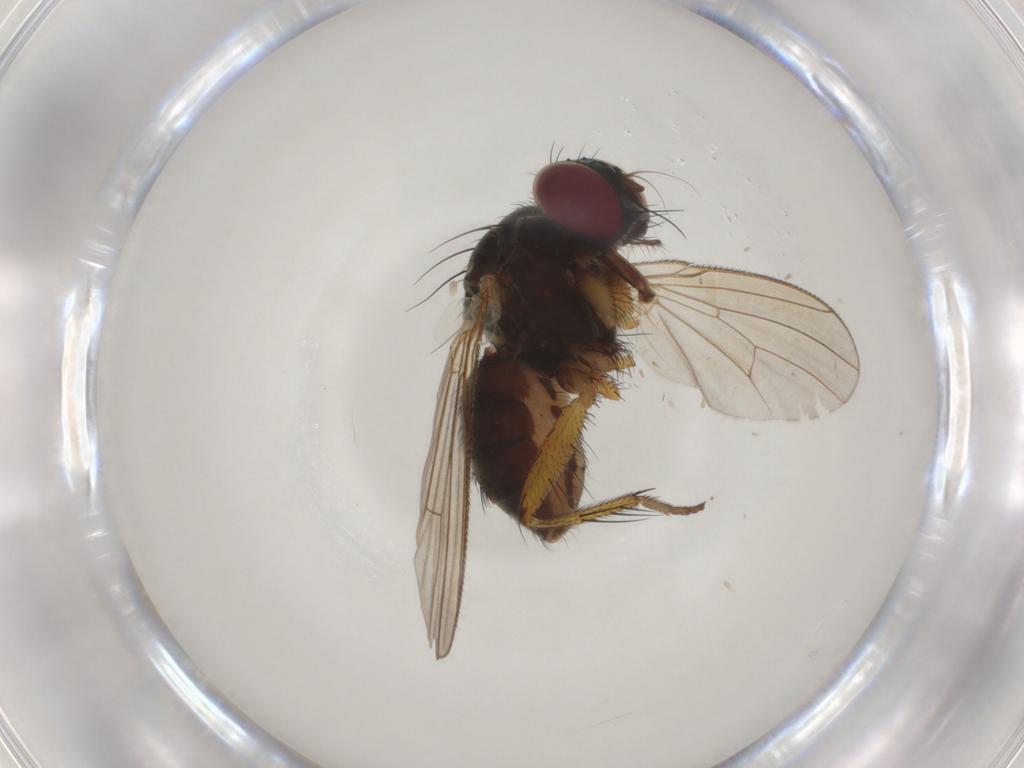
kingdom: Animalia
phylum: Arthropoda
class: Insecta
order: Diptera
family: Muscidae
